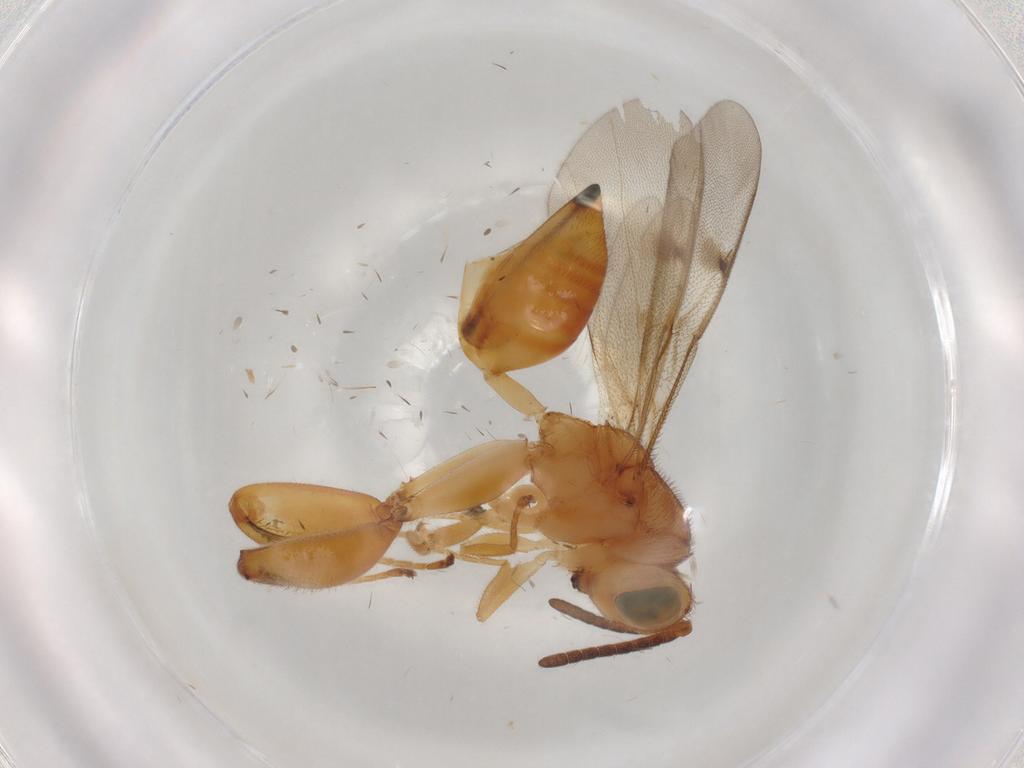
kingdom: Animalia
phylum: Arthropoda
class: Insecta
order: Hymenoptera
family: Chalcididae
